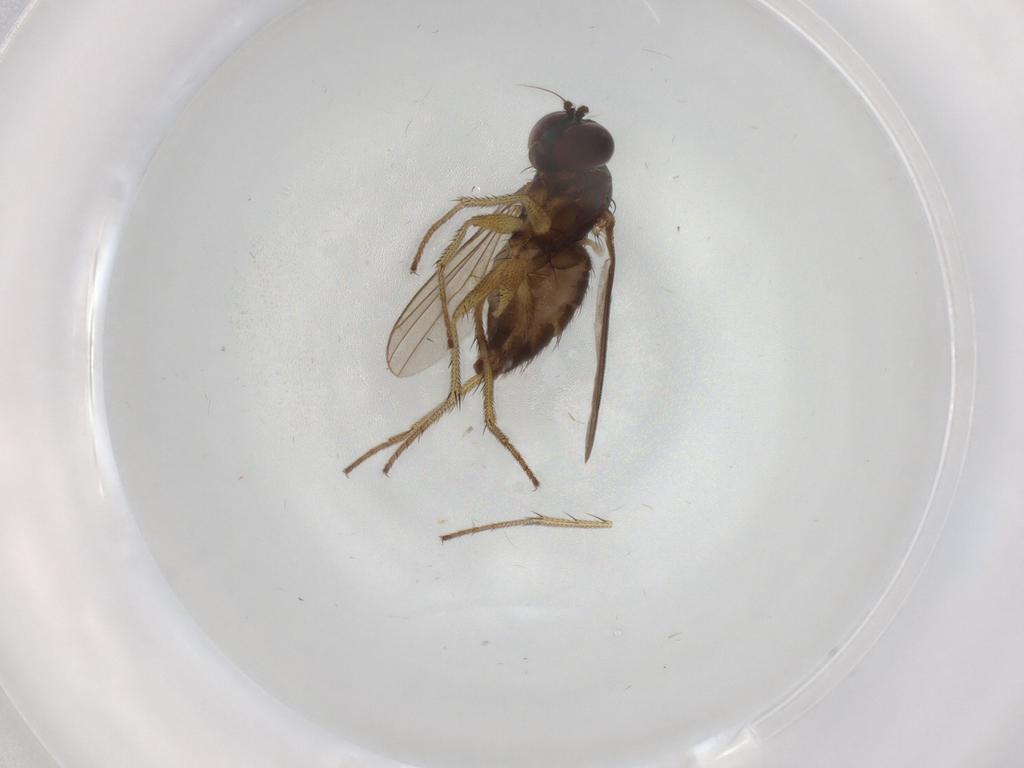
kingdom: Animalia
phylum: Arthropoda
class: Insecta
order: Diptera
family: Dolichopodidae
